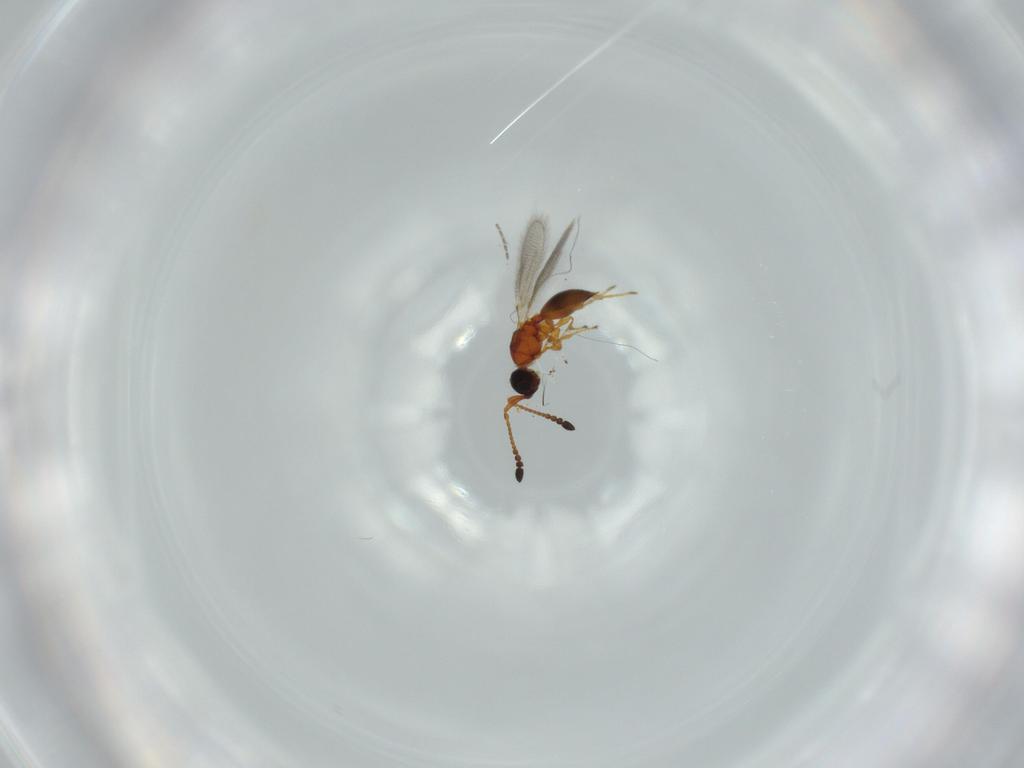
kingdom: Animalia
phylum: Arthropoda
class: Insecta
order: Hymenoptera
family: Diapriidae
